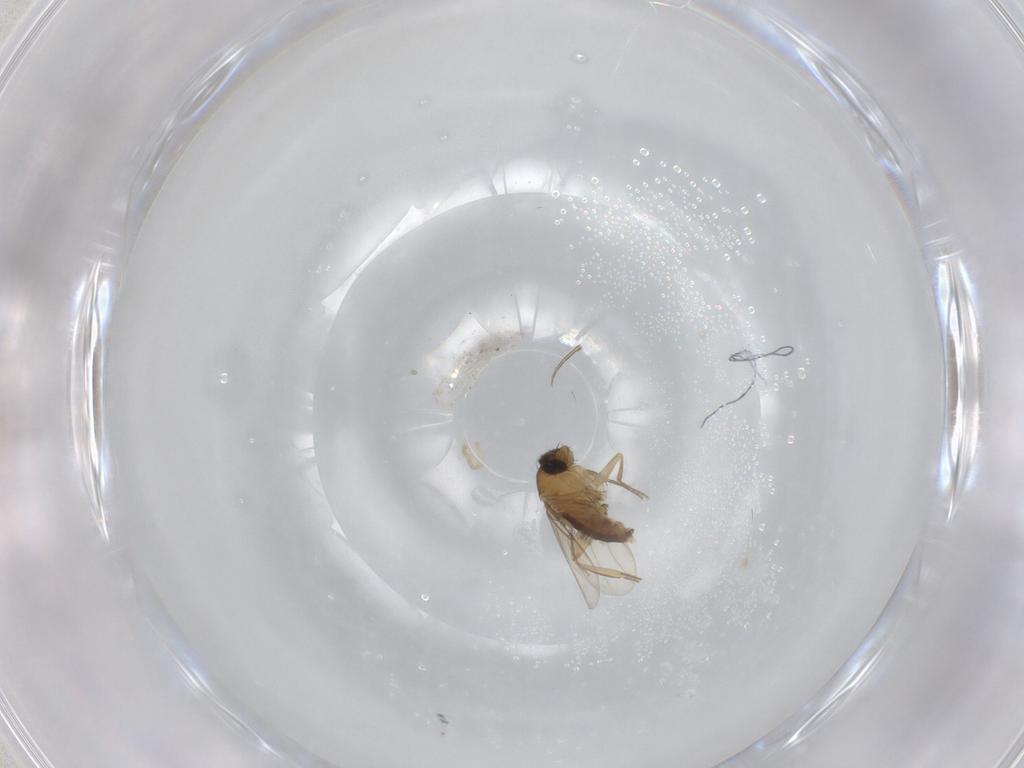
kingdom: Animalia
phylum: Arthropoda
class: Insecta
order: Diptera
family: Phoridae
